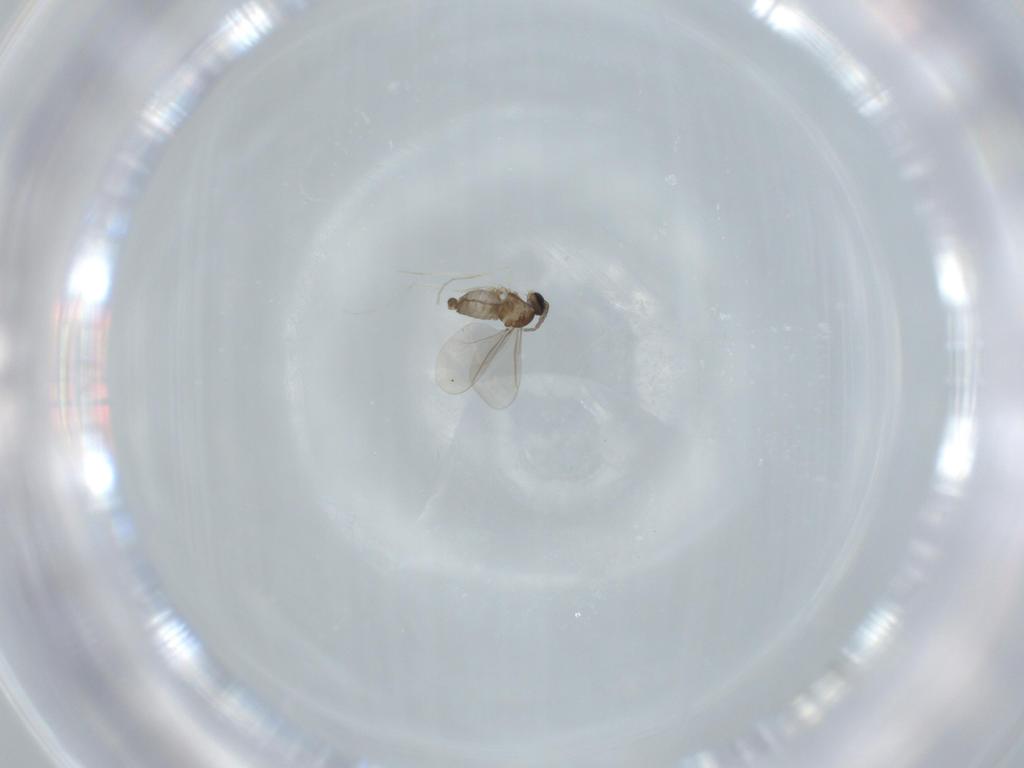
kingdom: Animalia
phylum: Arthropoda
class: Insecta
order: Diptera
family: Cecidomyiidae
